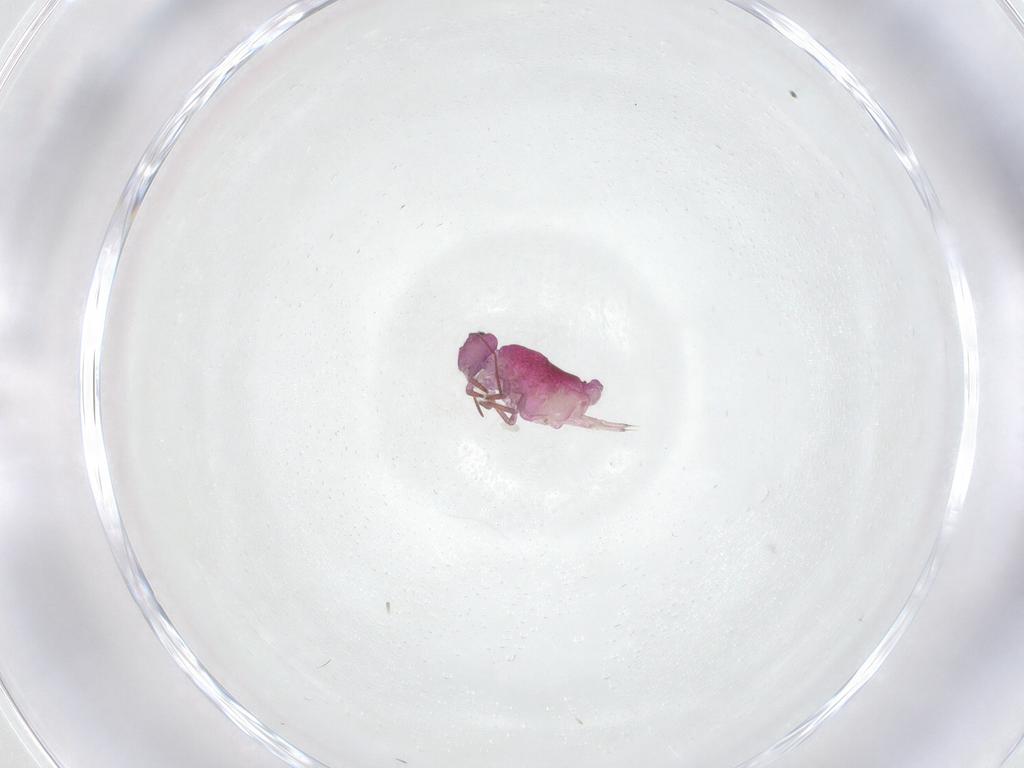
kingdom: Animalia
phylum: Arthropoda
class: Collembola
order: Symphypleona
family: Sminthuridae
